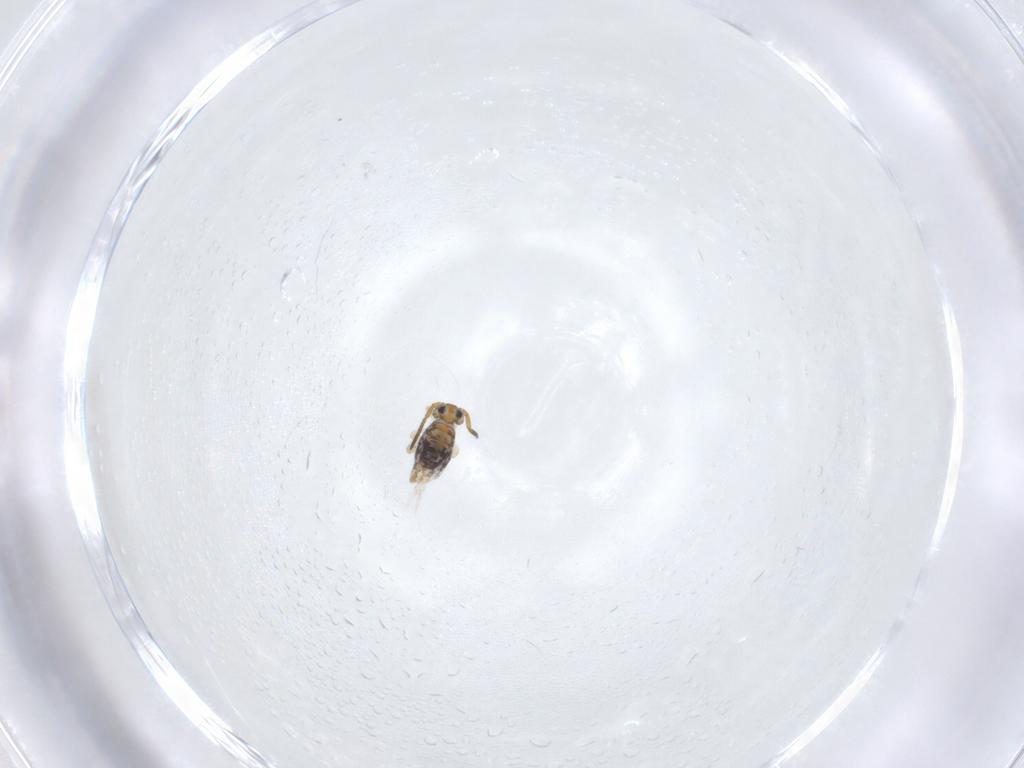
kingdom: Animalia
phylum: Arthropoda
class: Collembola
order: Symphypleona
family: Katiannidae
